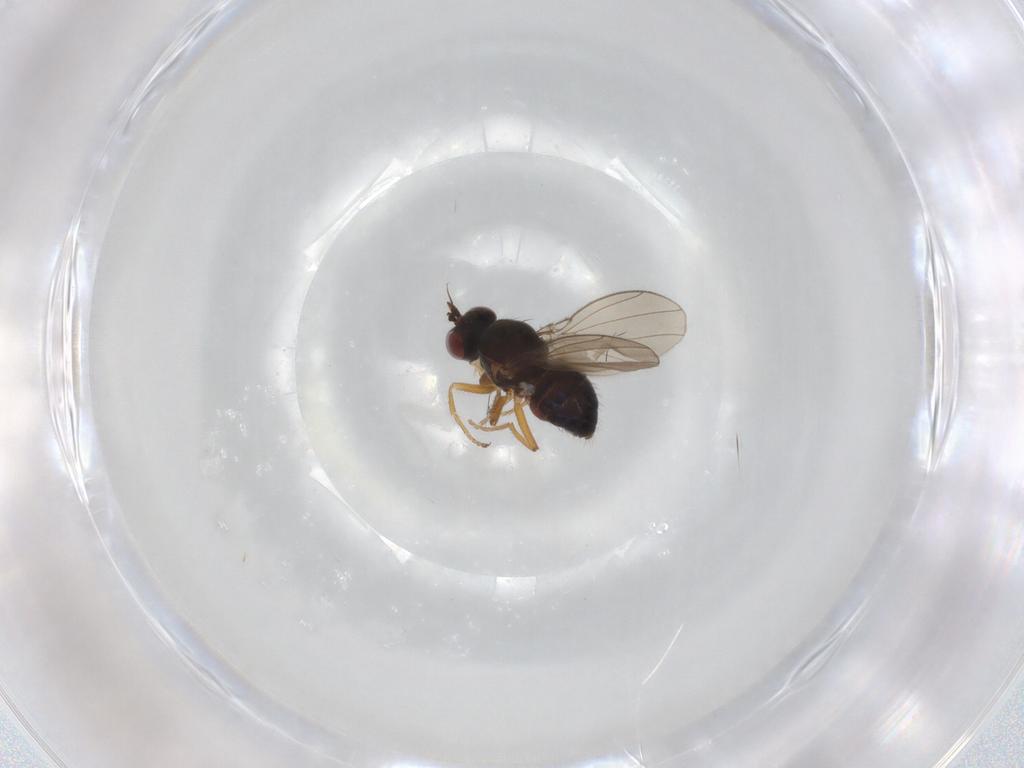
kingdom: Animalia
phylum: Arthropoda
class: Insecta
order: Diptera
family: Ephydridae
